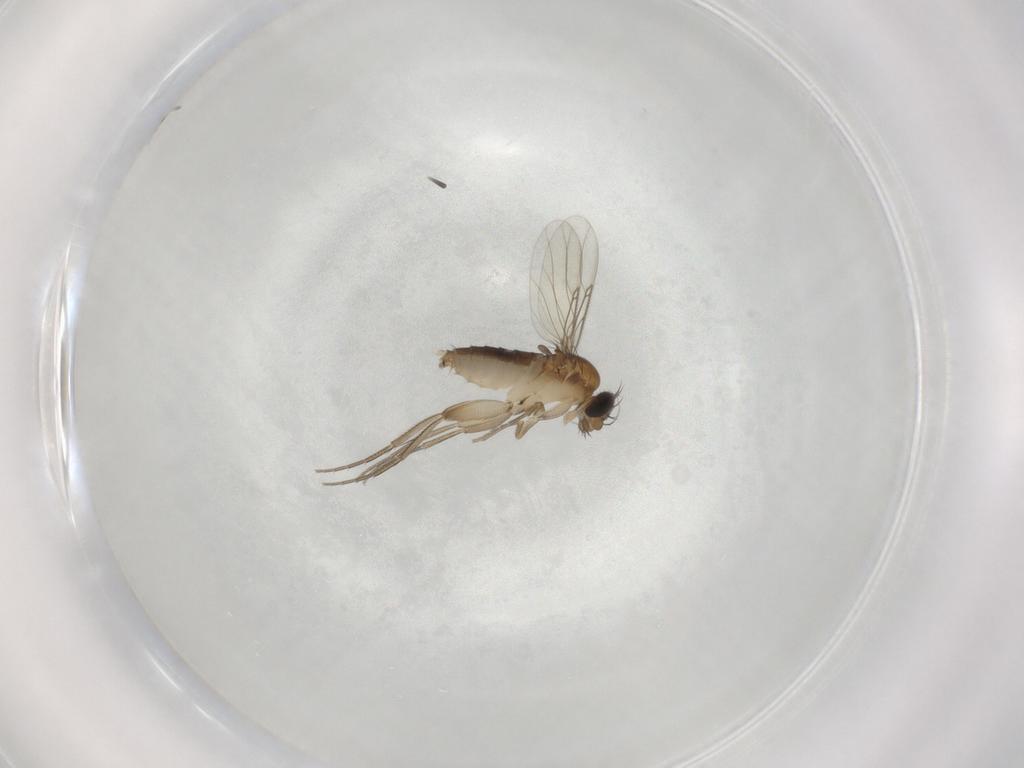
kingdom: Animalia
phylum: Arthropoda
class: Insecta
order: Diptera
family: Phoridae
